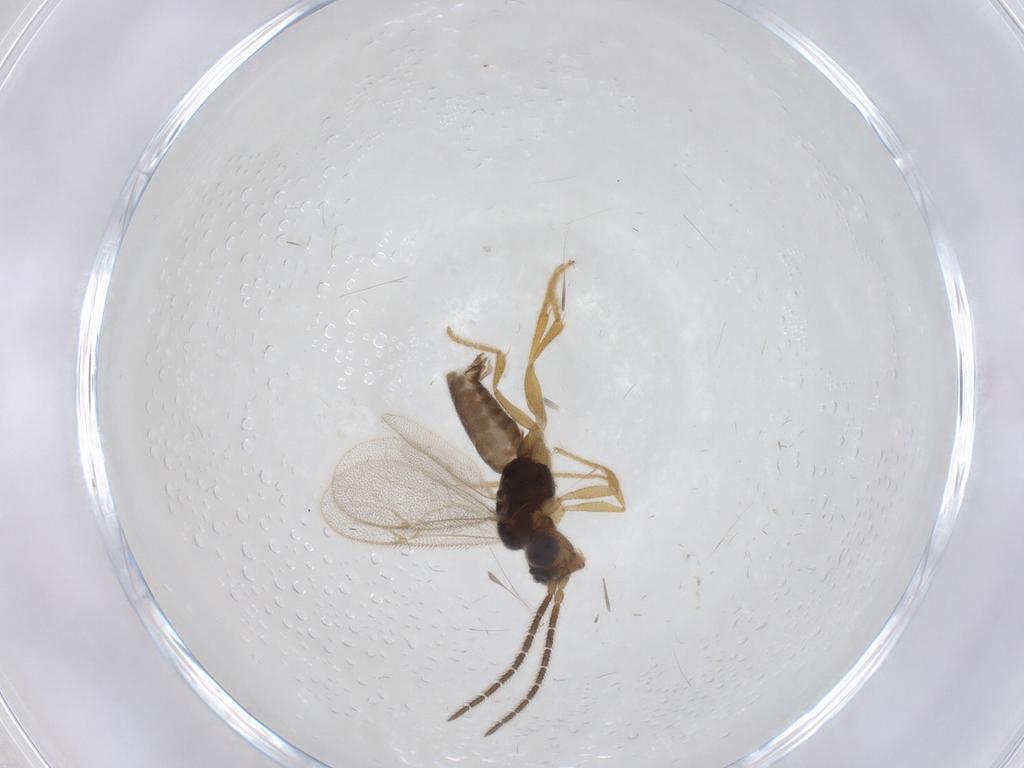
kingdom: Animalia
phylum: Arthropoda
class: Insecta
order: Hymenoptera
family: Dryinidae
